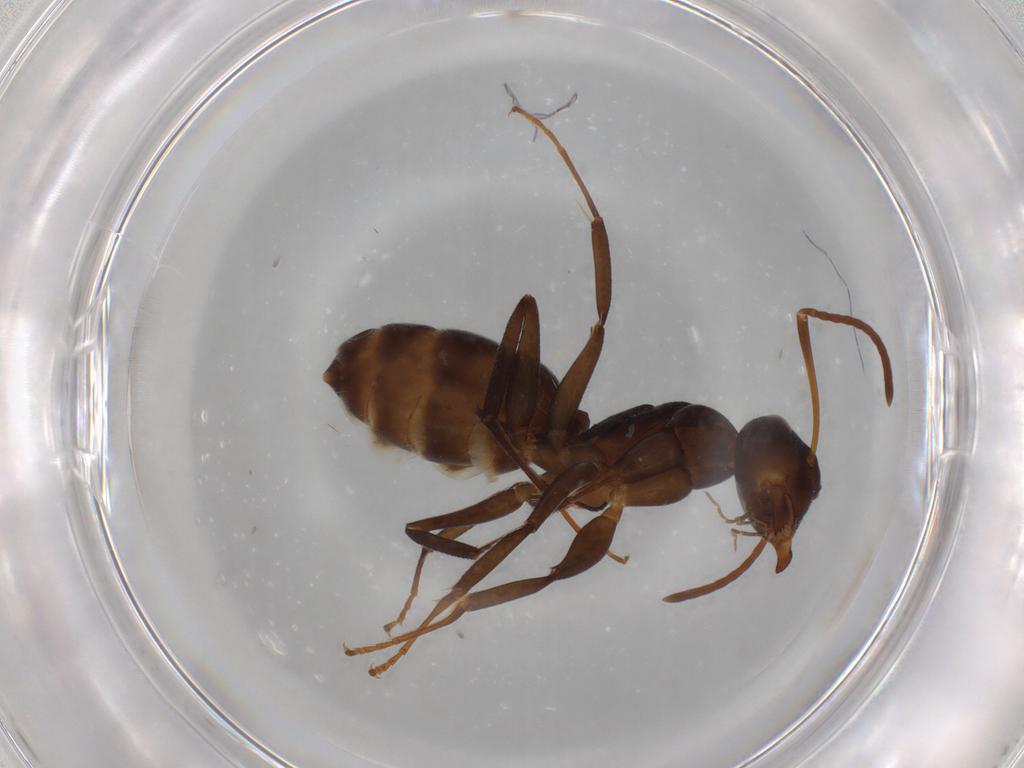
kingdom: Animalia
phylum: Arthropoda
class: Insecta
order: Hymenoptera
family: Formicidae
